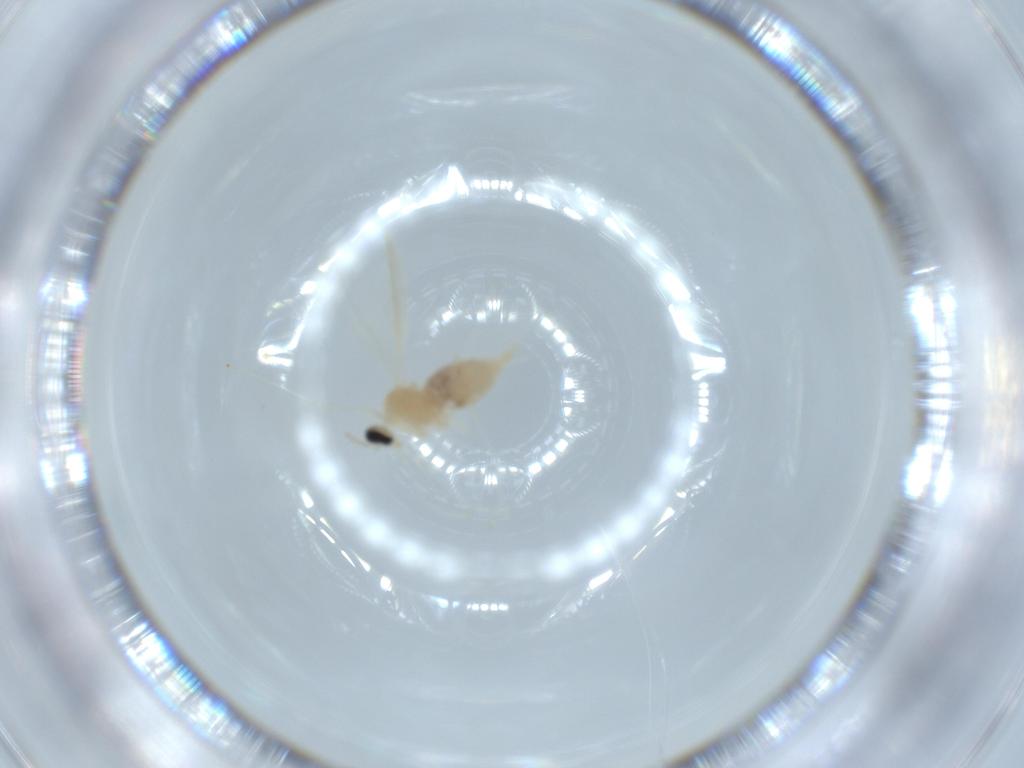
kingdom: Animalia
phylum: Arthropoda
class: Insecta
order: Diptera
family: Cecidomyiidae
